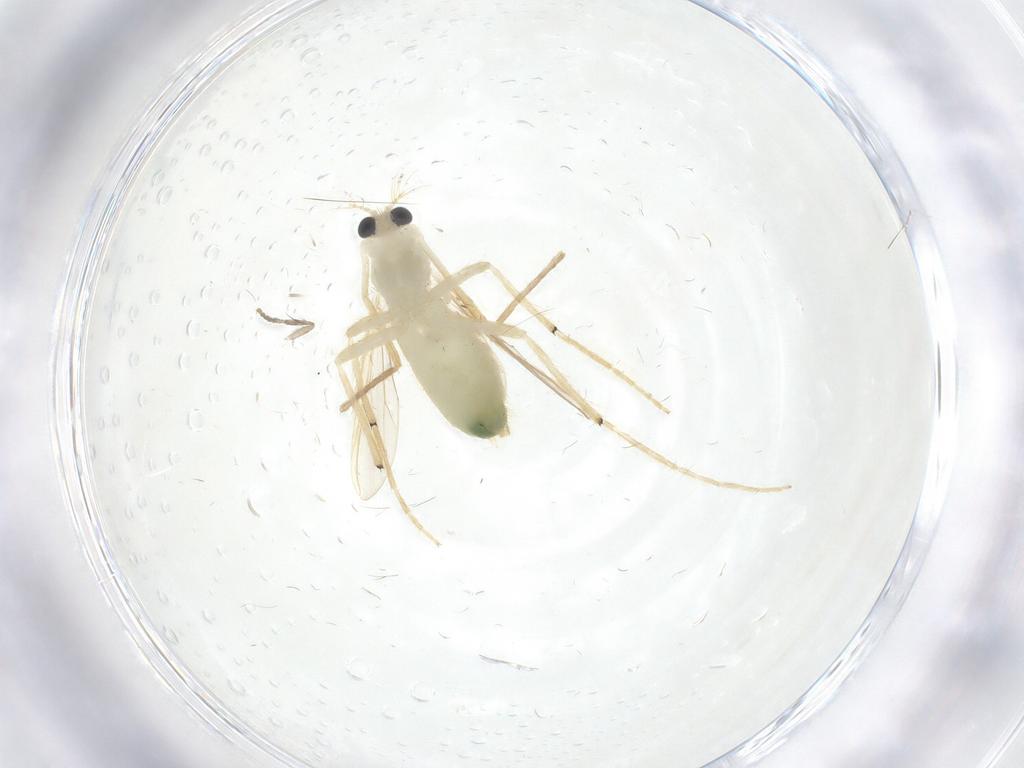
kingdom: Animalia
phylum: Arthropoda
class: Insecta
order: Diptera
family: Chironomidae
